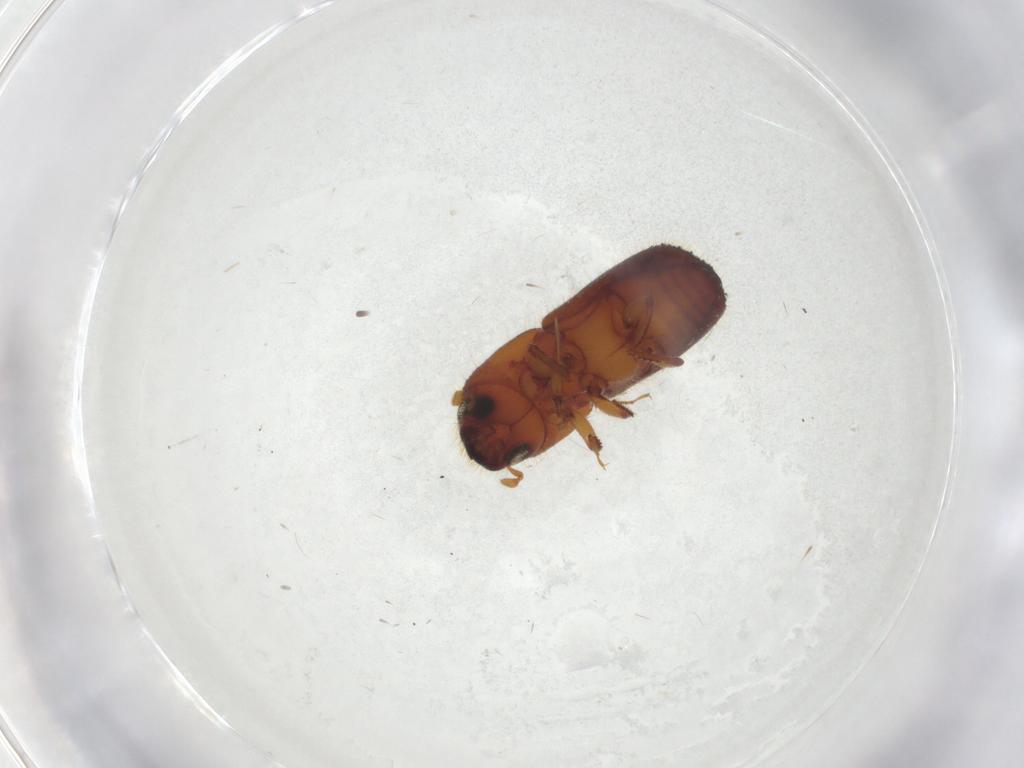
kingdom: Animalia
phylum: Arthropoda
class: Insecta
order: Coleoptera
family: Curculionidae
